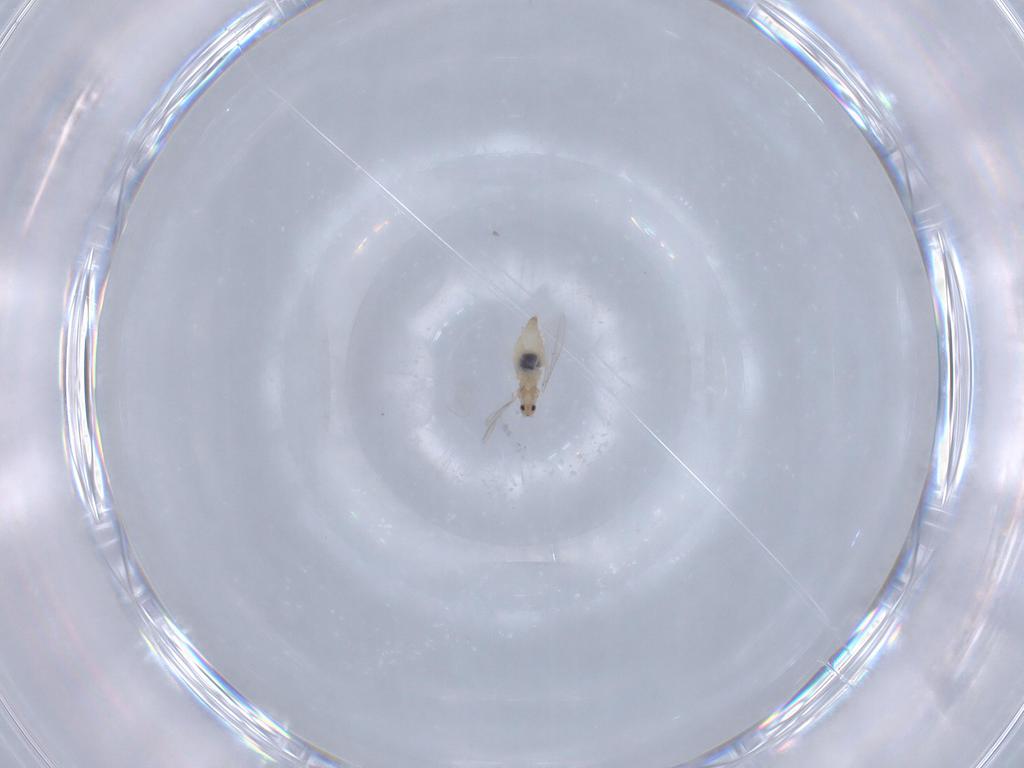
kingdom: Animalia
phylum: Arthropoda
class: Insecta
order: Diptera
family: Cecidomyiidae
